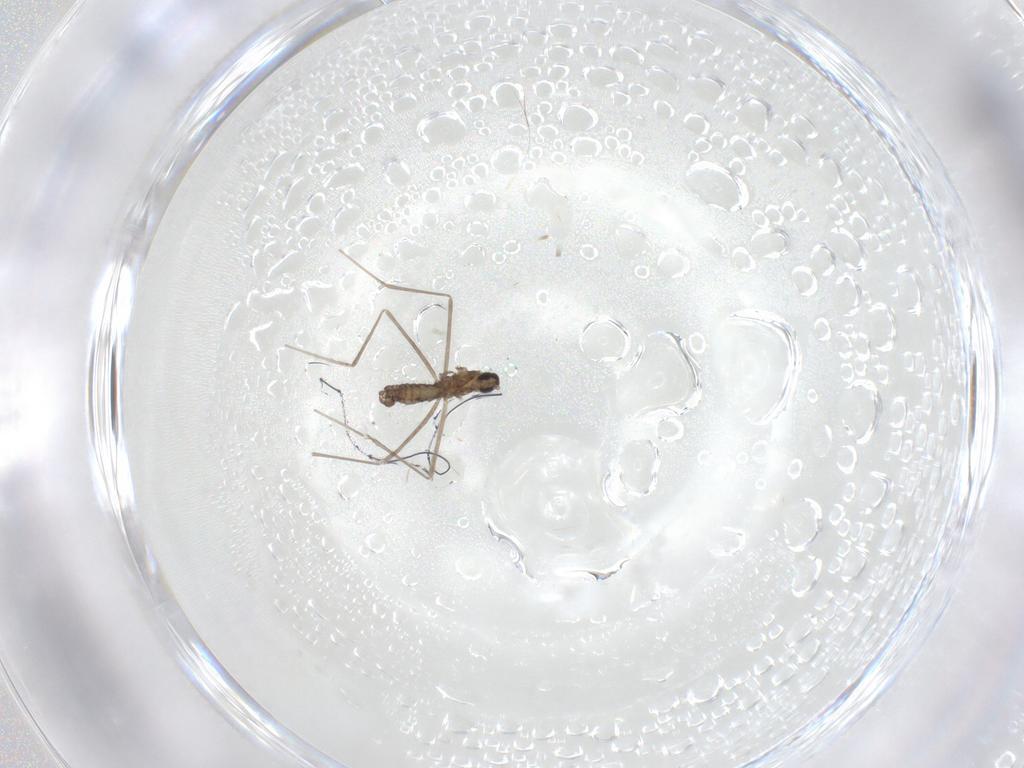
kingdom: Animalia
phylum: Arthropoda
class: Insecta
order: Diptera
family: Cecidomyiidae
